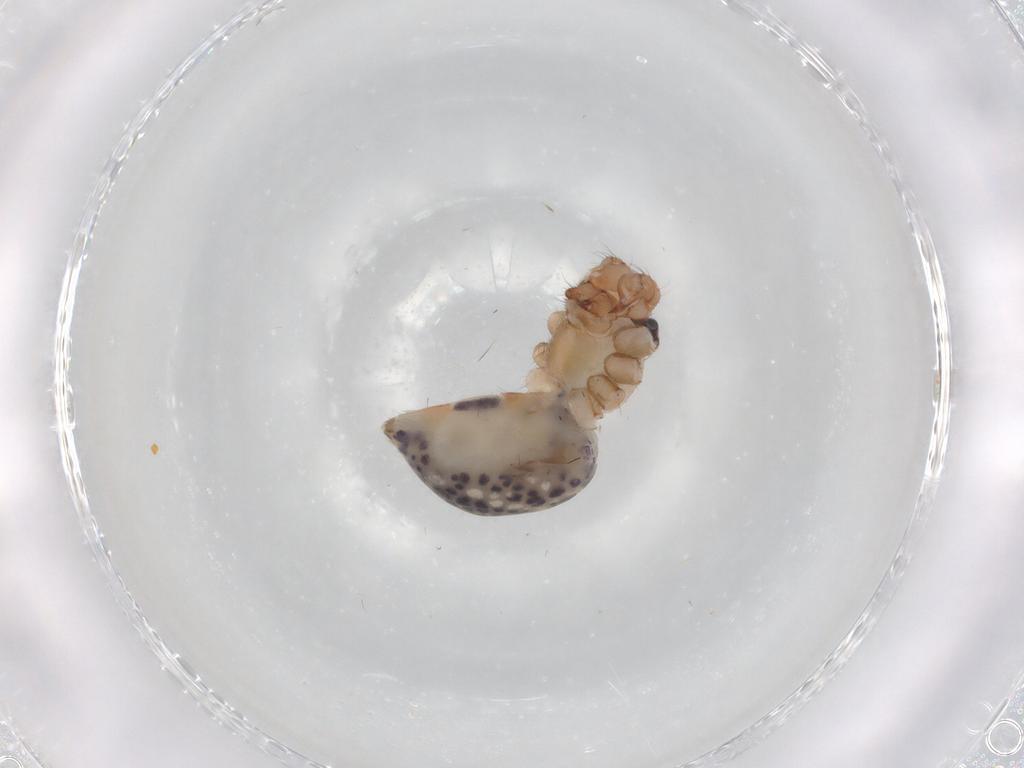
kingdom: Animalia
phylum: Arthropoda
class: Arachnida
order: Araneae
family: Pholcidae
